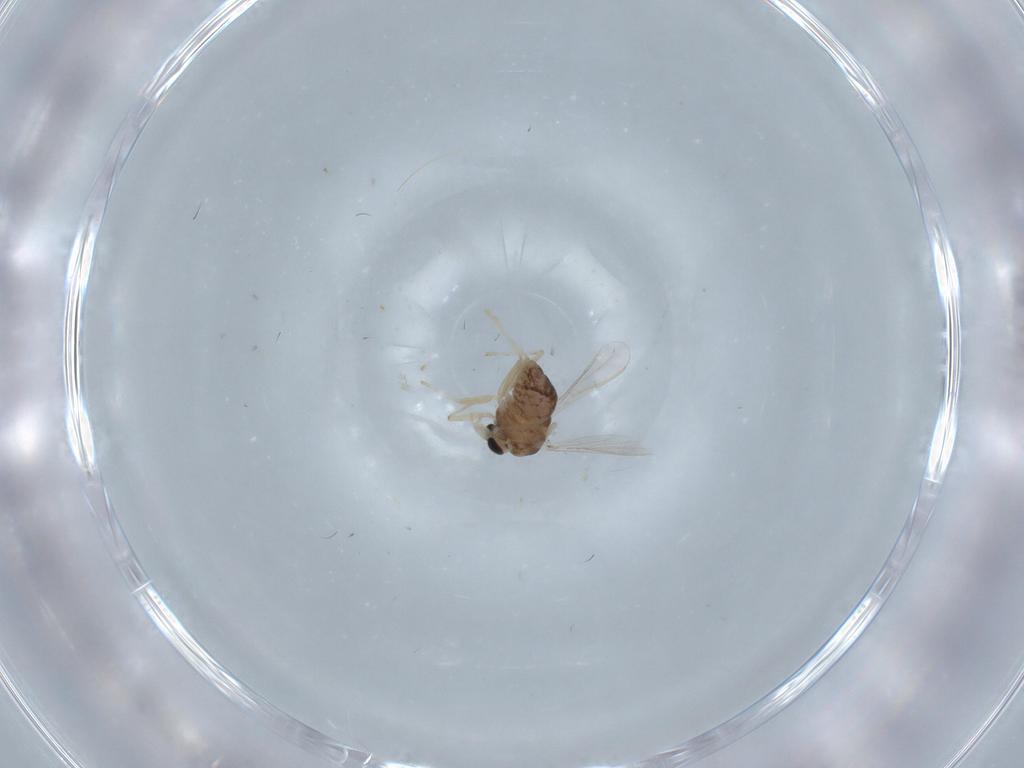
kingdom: Animalia
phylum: Arthropoda
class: Insecta
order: Diptera
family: Chironomidae
